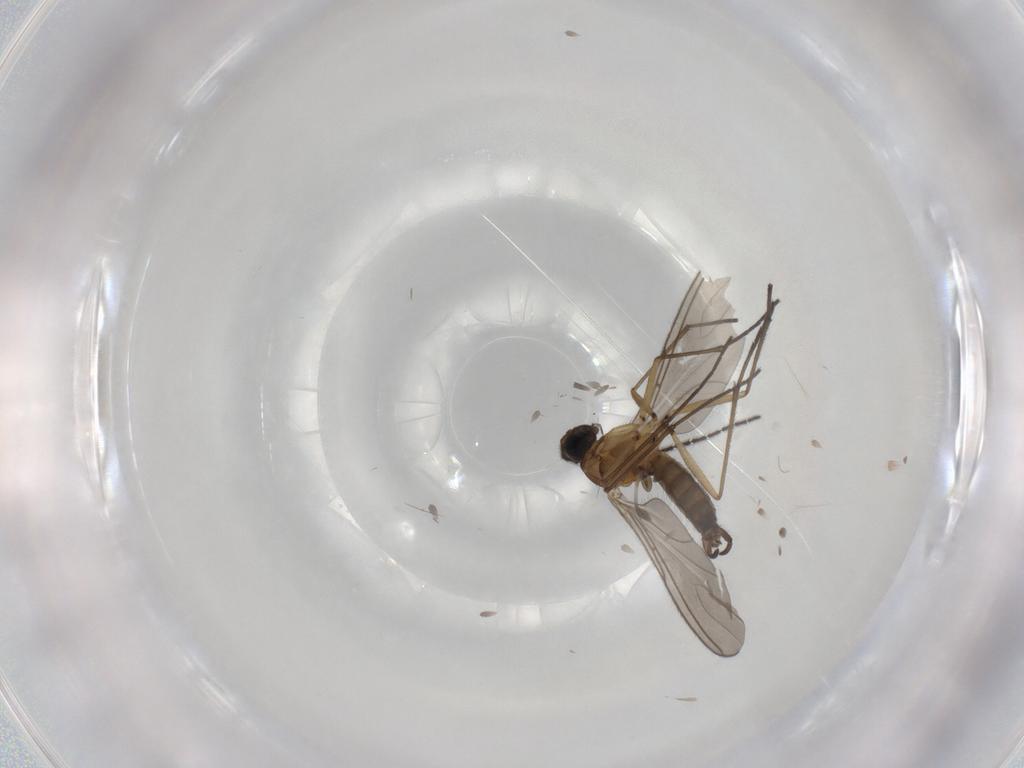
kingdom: Animalia
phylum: Arthropoda
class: Insecta
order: Diptera
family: Sciaridae
